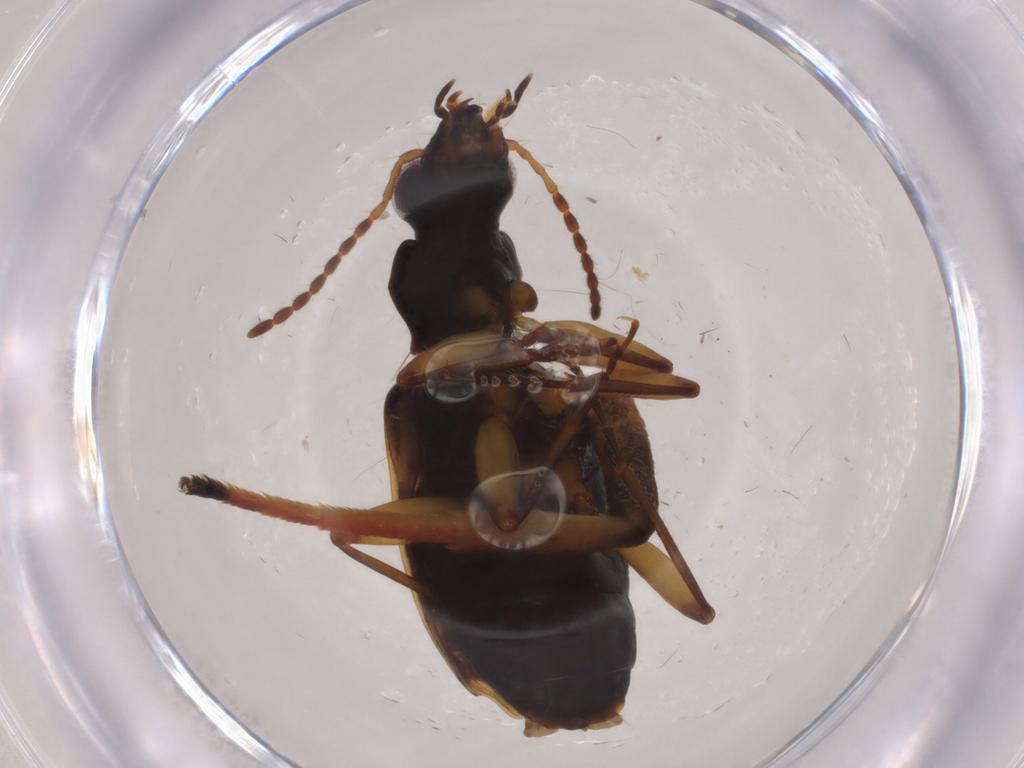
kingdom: Animalia
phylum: Arthropoda
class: Insecta
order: Coleoptera
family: Carabidae
